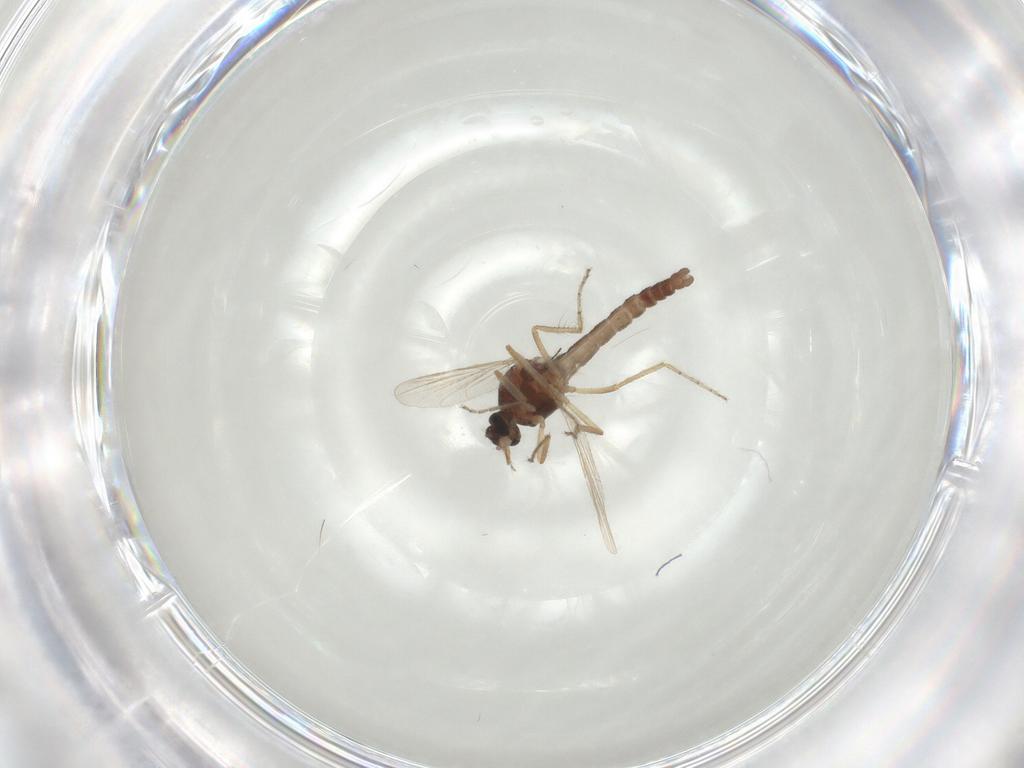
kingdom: Animalia
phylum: Arthropoda
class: Insecta
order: Diptera
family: Ceratopogonidae
